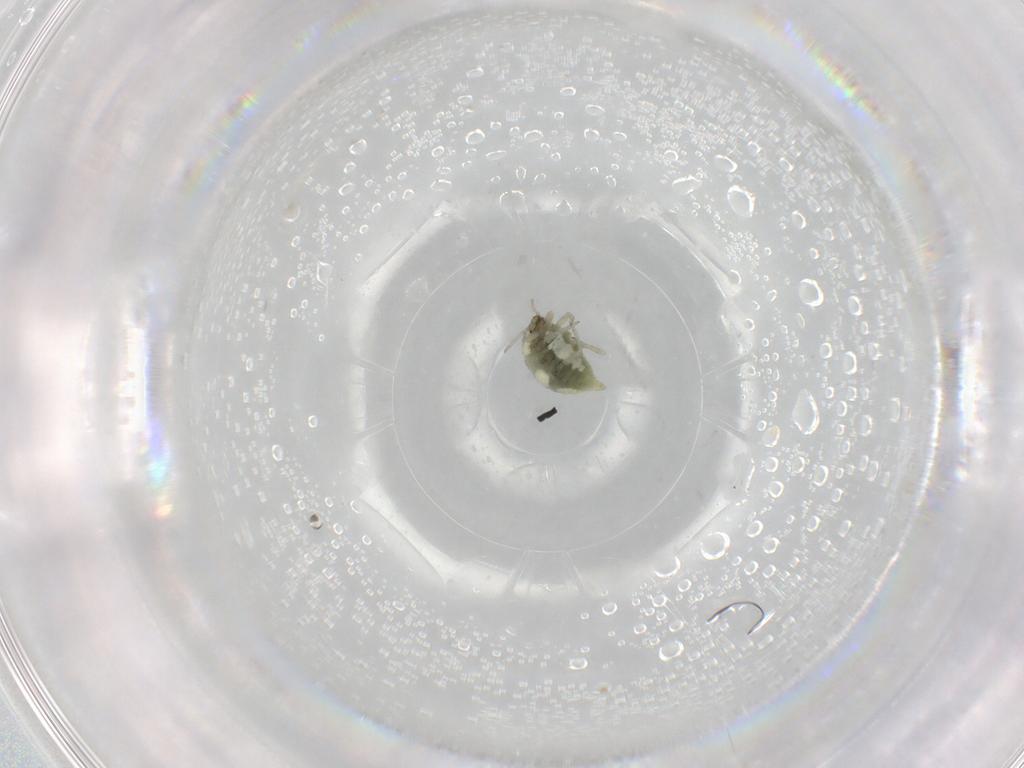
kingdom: Animalia
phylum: Arthropoda
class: Insecta
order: Neuroptera
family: Coniopterygidae
